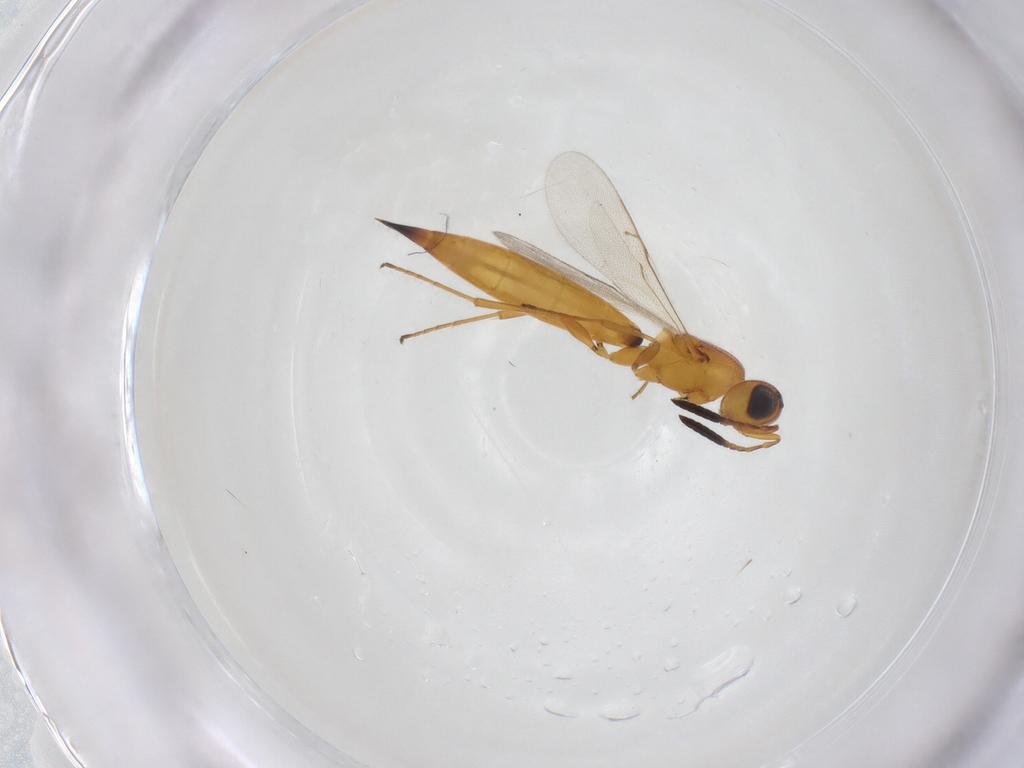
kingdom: Animalia
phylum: Arthropoda
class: Insecta
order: Hymenoptera
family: Scelionidae
